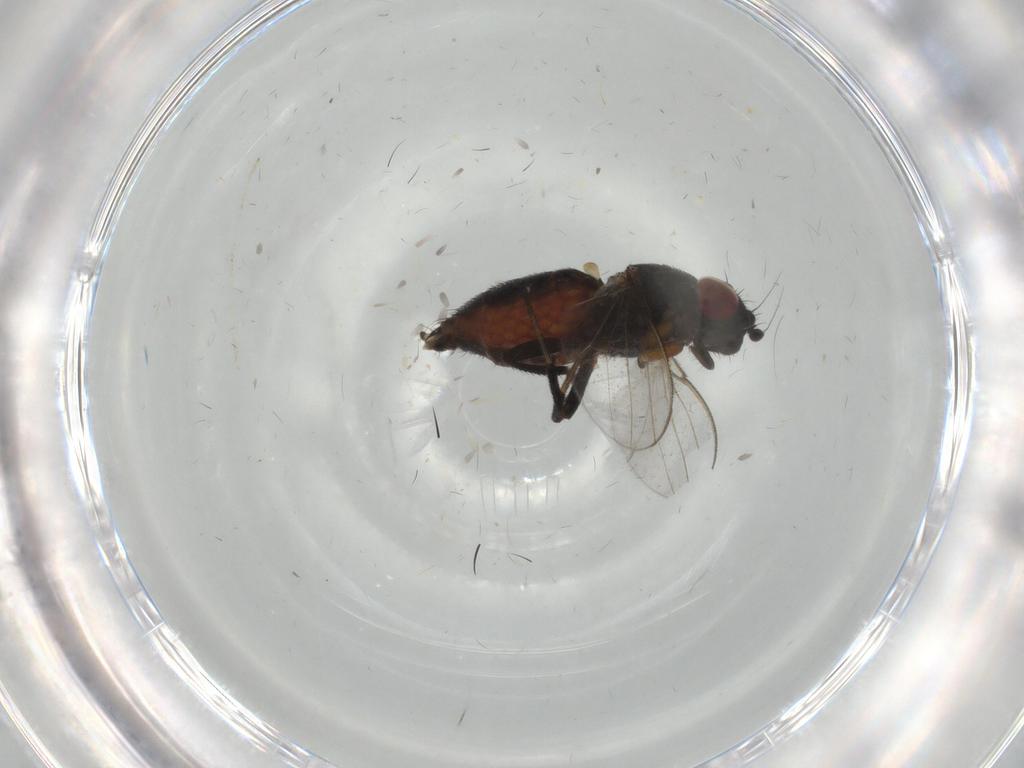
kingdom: Animalia
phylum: Arthropoda
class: Insecta
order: Diptera
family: Milichiidae
